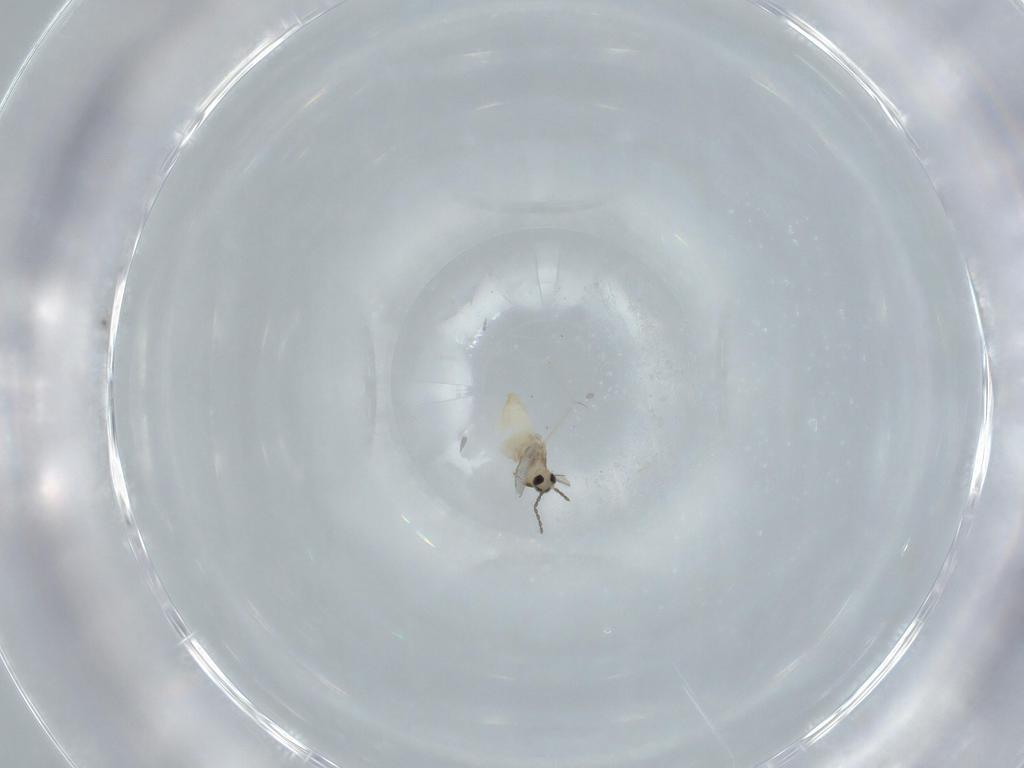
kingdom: Animalia
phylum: Arthropoda
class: Insecta
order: Diptera
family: Cecidomyiidae
